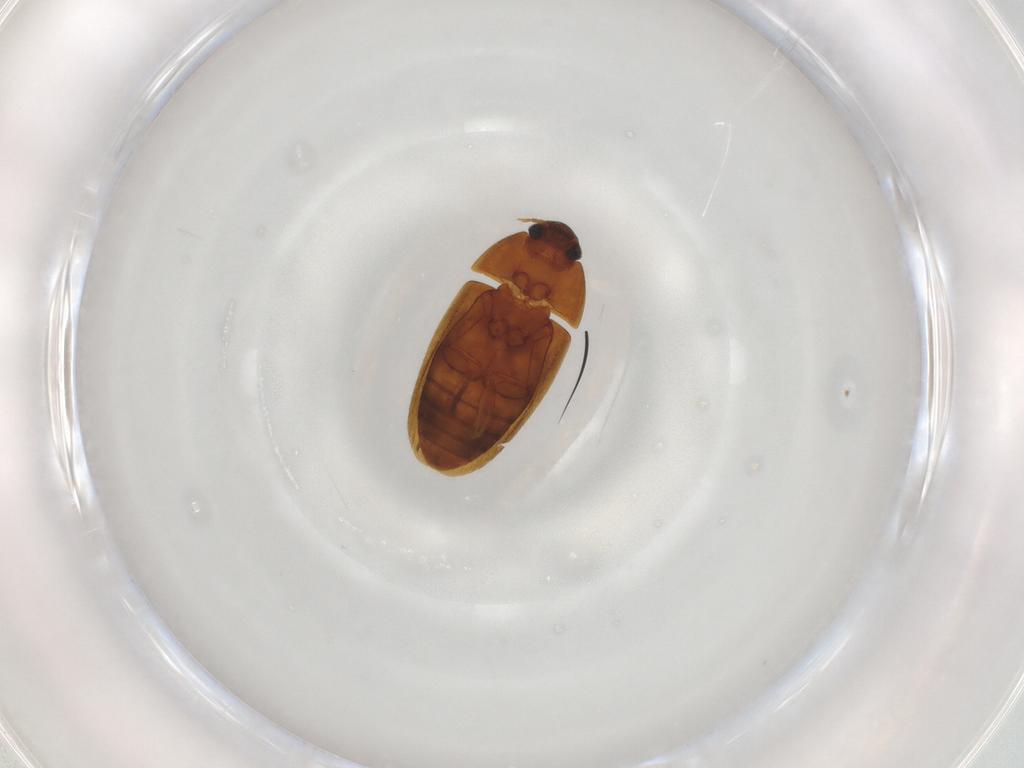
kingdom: Animalia
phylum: Arthropoda
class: Insecta
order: Coleoptera
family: Mycetophagidae
